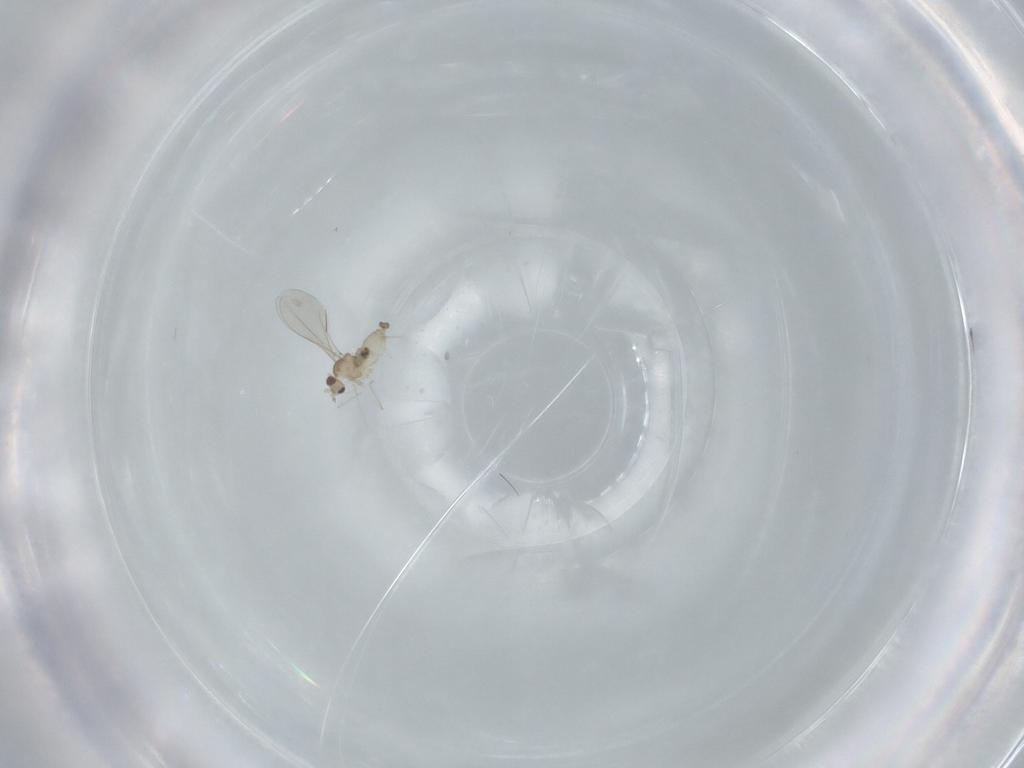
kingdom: Animalia
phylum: Arthropoda
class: Insecta
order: Diptera
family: Cecidomyiidae
